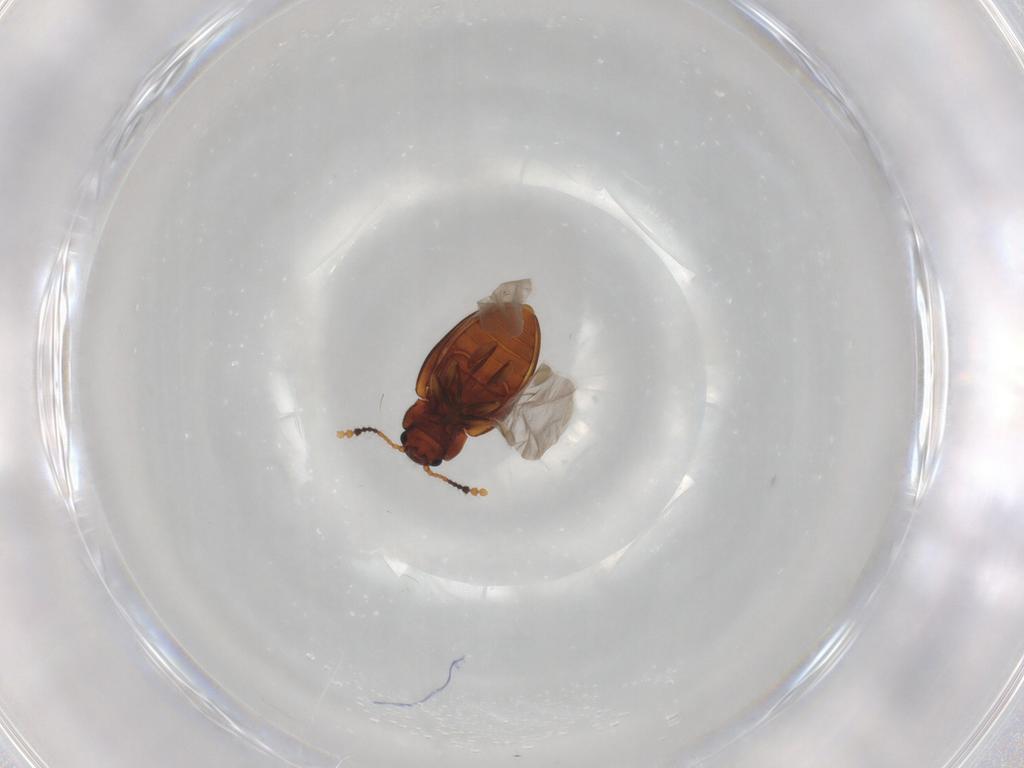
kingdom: Animalia
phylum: Arthropoda
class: Insecta
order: Coleoptera
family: Erotylidae
